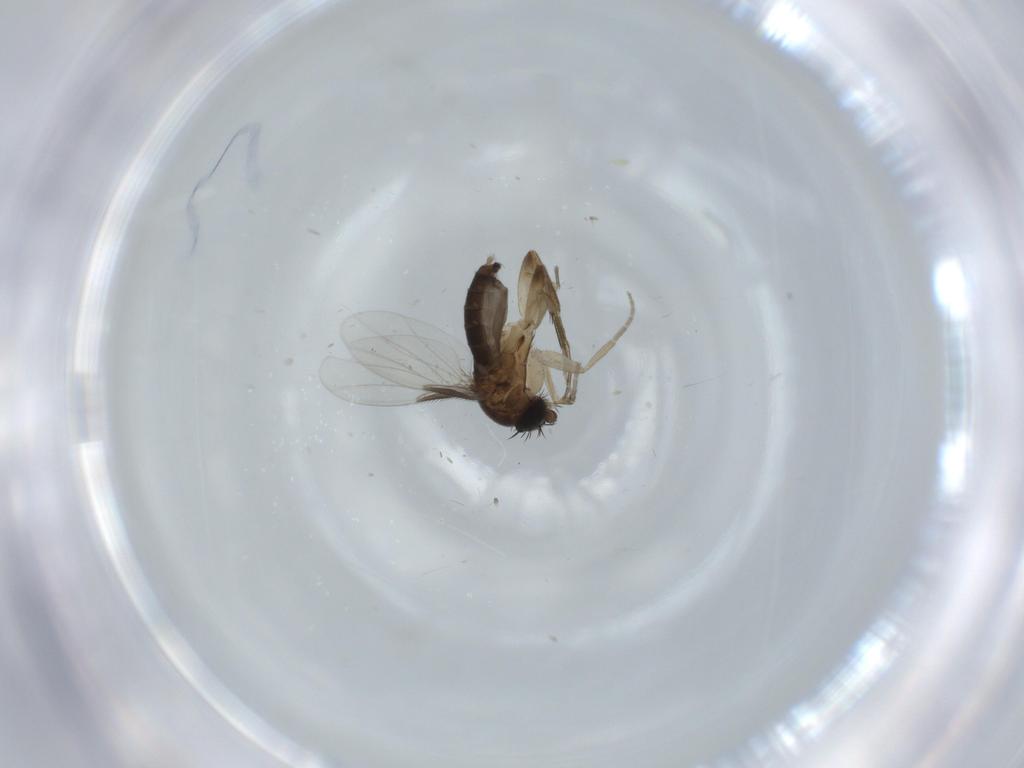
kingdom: Animalia
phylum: Arthropoda
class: Insecta
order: Diptera
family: Phoridae
